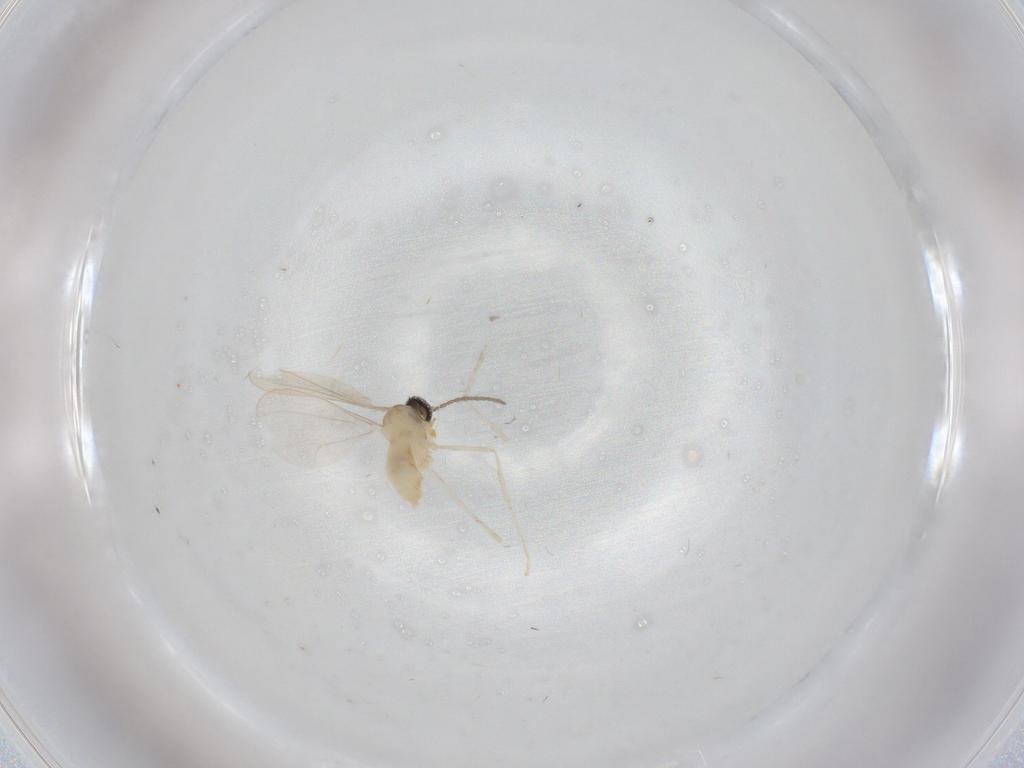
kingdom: Animalia
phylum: Arthropoda
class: Insecta
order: Diptera
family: Cecidomyiidae
